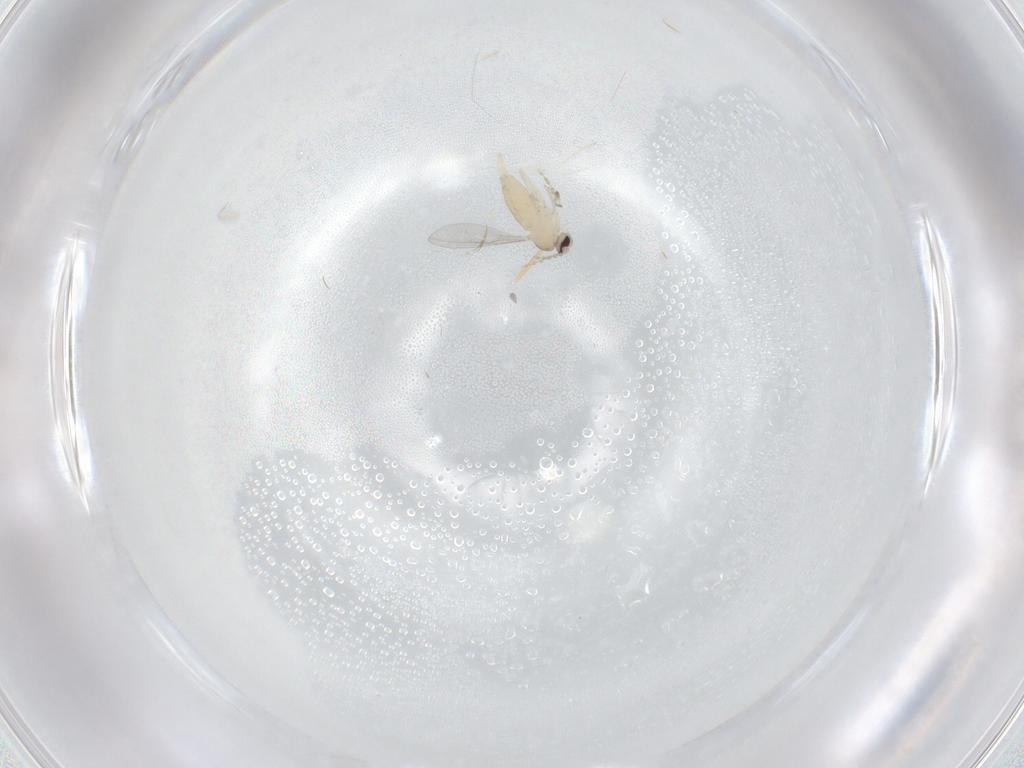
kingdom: Animalia
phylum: Arthropoda
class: Insecta
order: Diptera
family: Cecidomyiidae
